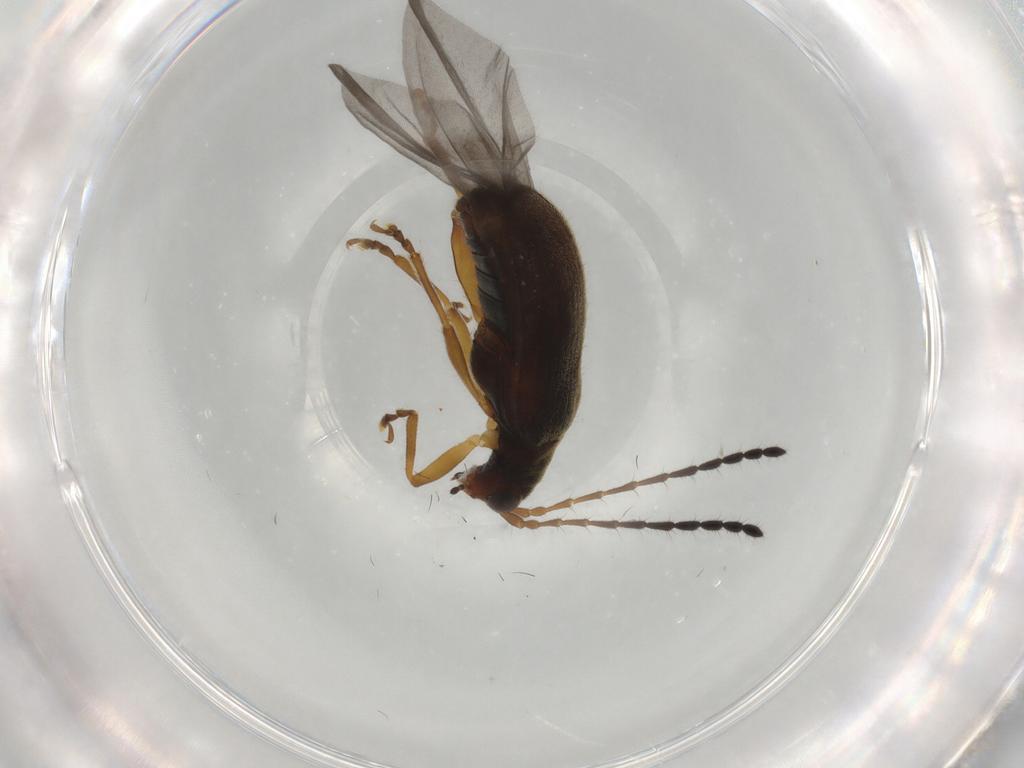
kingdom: Animalia
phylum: Arthropoda
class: Insecta
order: Coleoptera
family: Chrysomelidae
